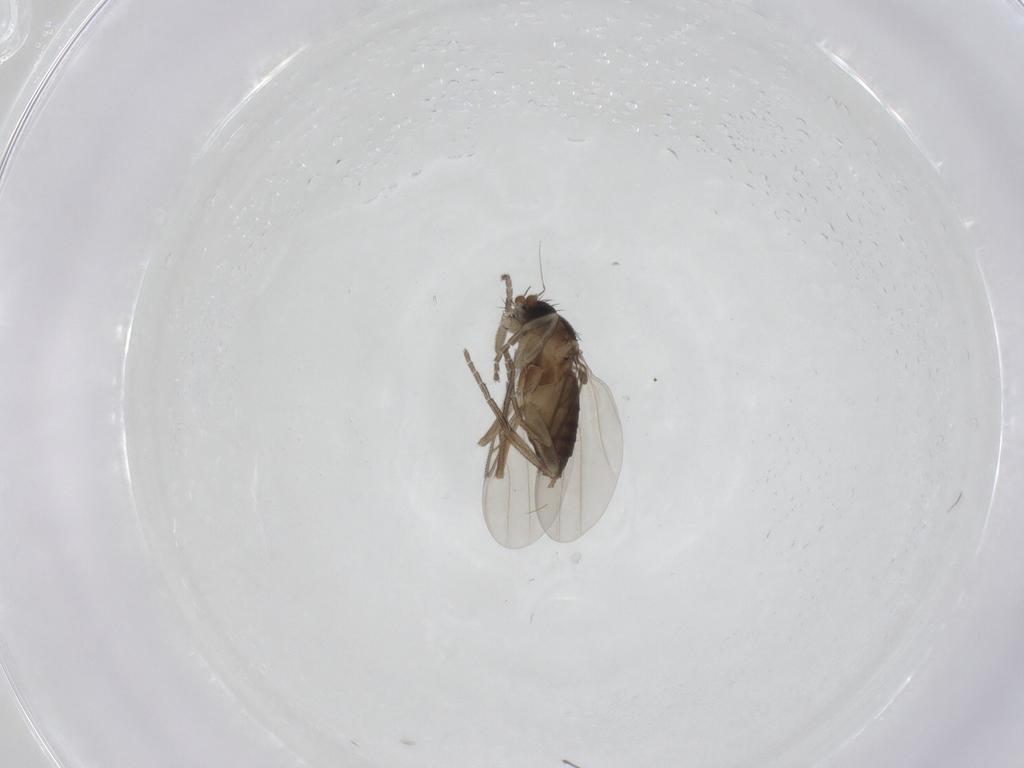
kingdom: Animalia
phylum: Arthropoda
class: Insecta
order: Diptera
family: Phoridae
